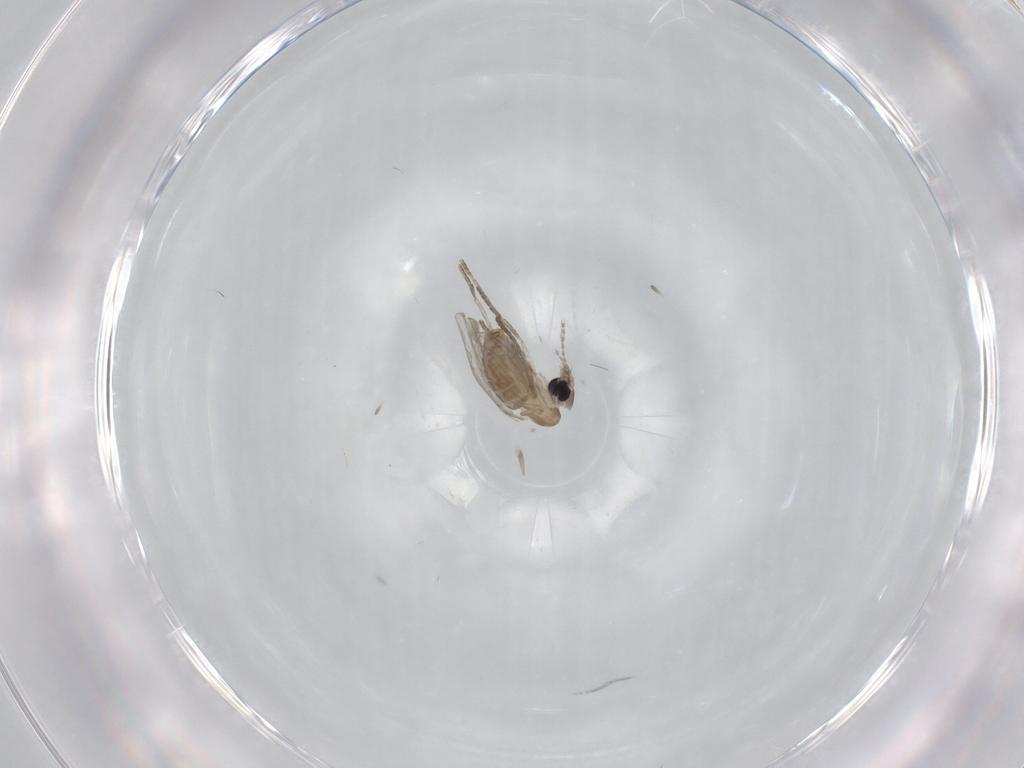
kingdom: Animalia
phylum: Arthropoda
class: Insecta
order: Diptera
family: Psychodidae
